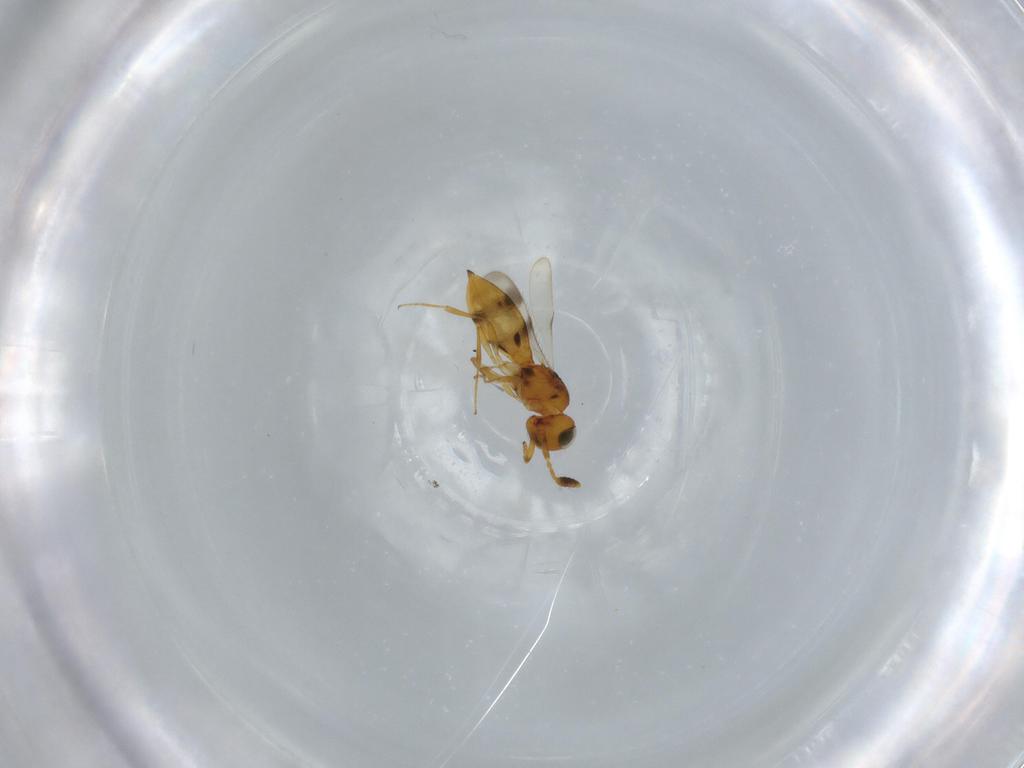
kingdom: Animalia
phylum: Arthropoda
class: Insecta
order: Hymenoptera
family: Scelionidae
